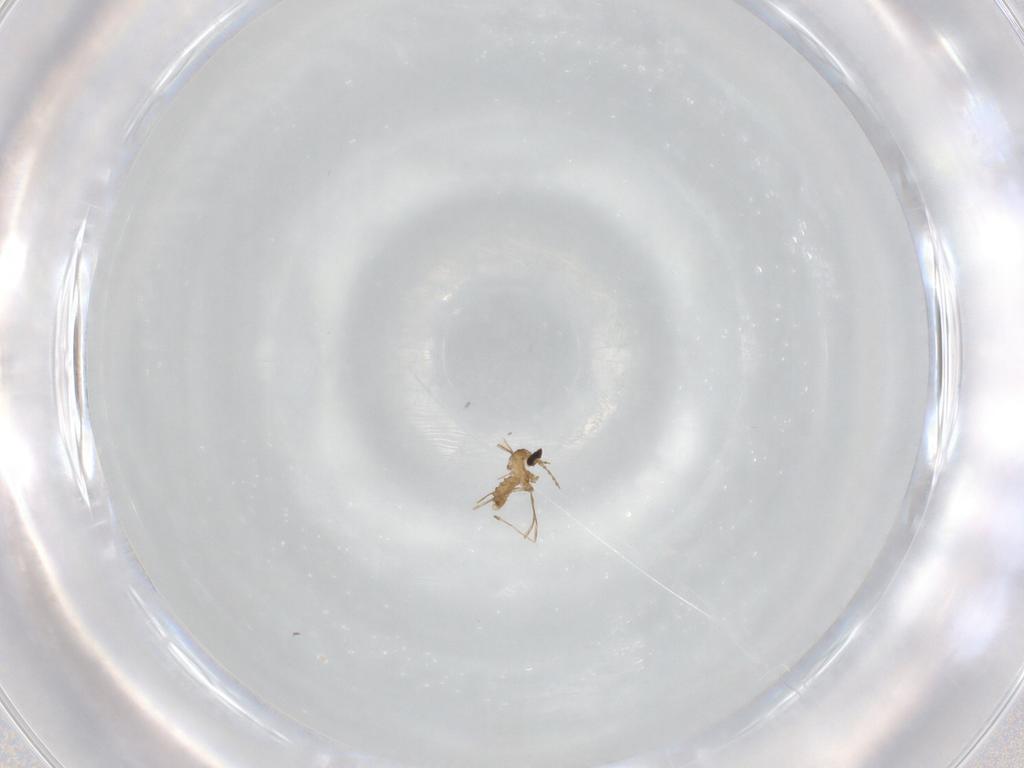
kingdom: Animalia
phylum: Arthropoda
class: Insecta
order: Diptera
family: Cecidomyiidae
